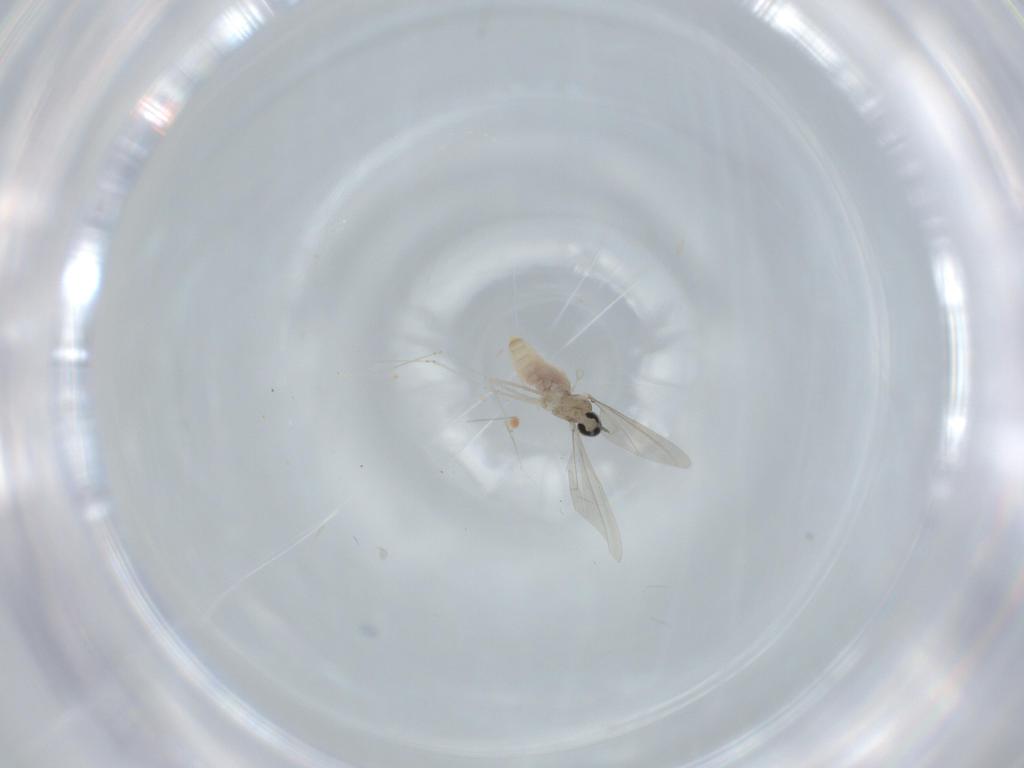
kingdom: Animalia
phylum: Arthropoda
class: Insecta
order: Diptera
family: Cecidomyiidae
